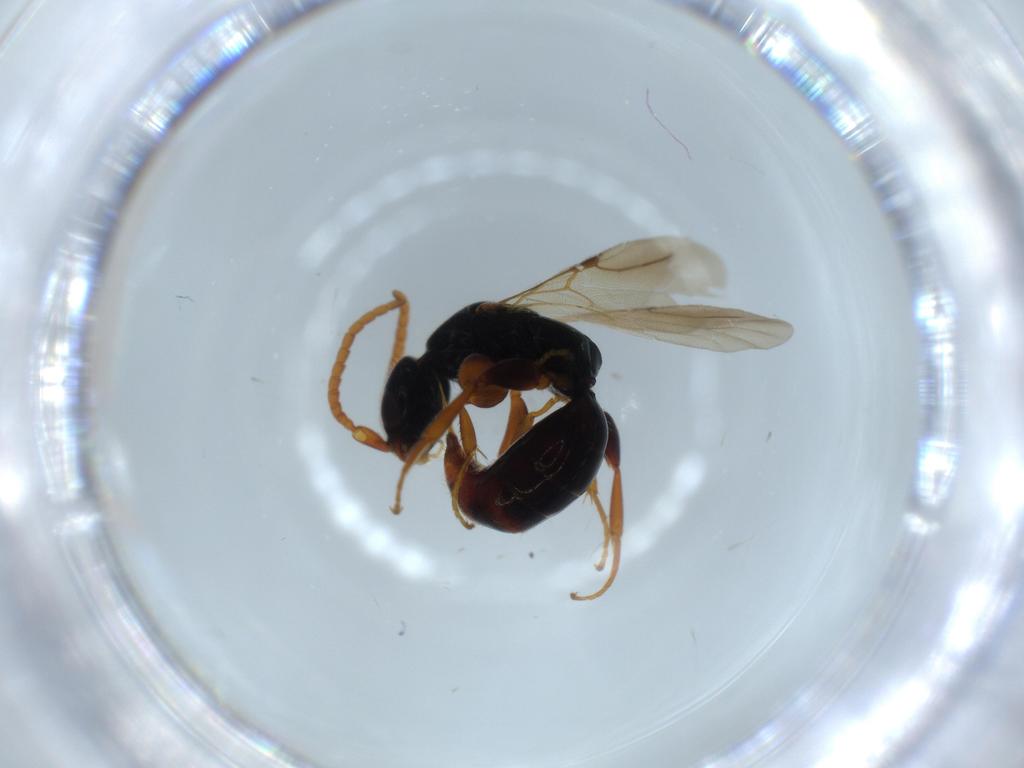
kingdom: Animalia
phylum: Arthropoda
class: Insecta
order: Hymenoptera
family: Bethylidae
